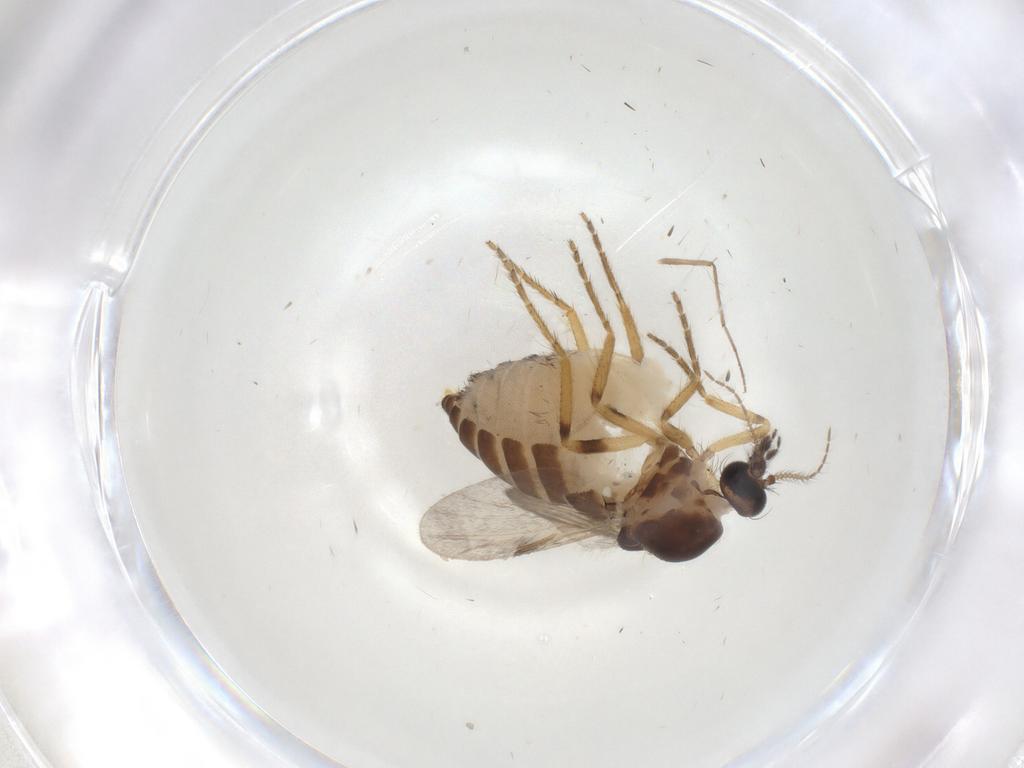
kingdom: Animalia
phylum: Arthropoda
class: Insecta
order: Diptera
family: Ceratopogonidae
